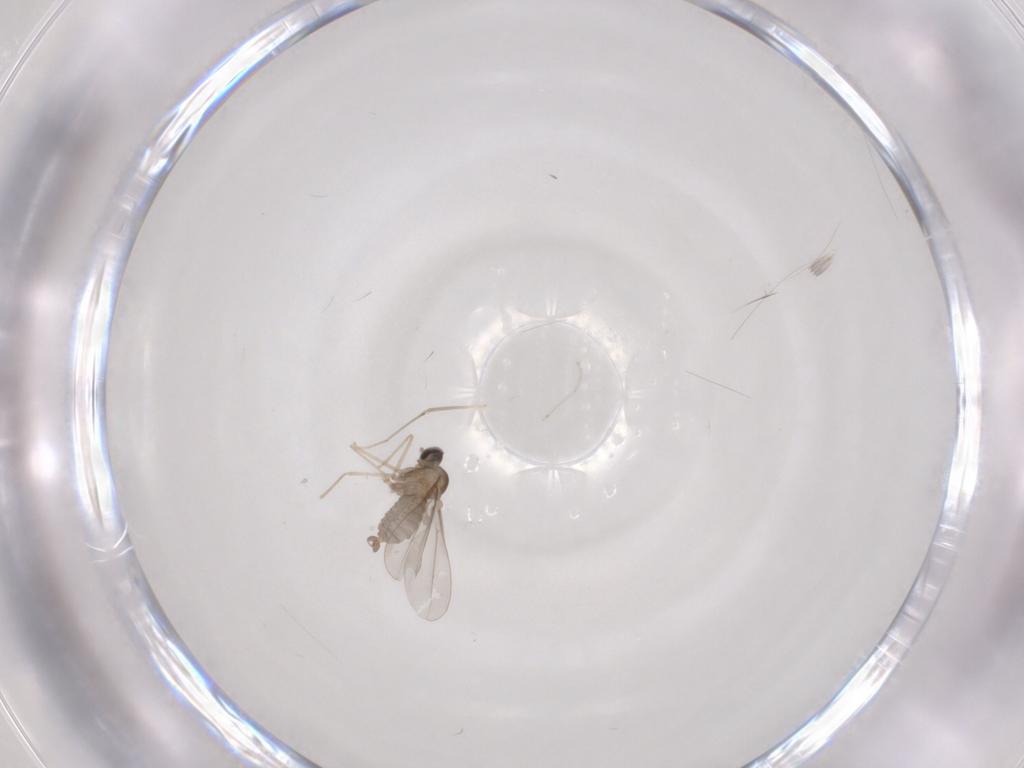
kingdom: Animalia
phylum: Arthropoda
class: Insecta
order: Diptera
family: Cecidomyiidae
